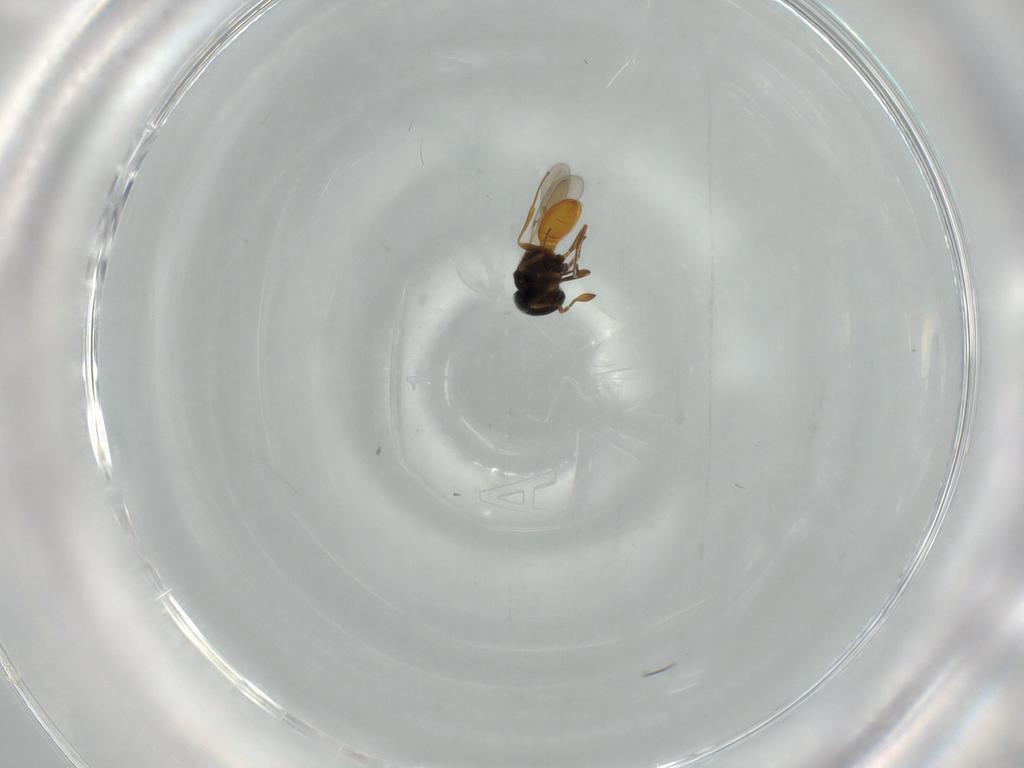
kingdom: Animalia
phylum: Arthropoda
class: Insecta
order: Hymenoptera
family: Scelionidae
